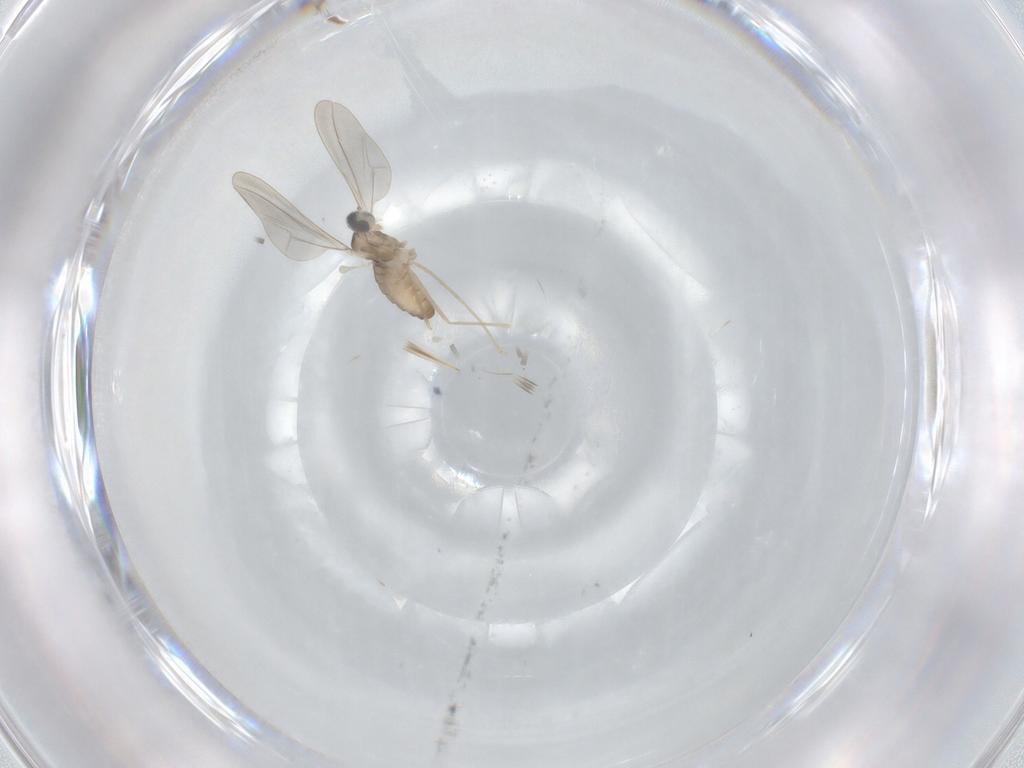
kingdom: Animalia
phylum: Arthropoda
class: Insecta
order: Diptera
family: Cecidomyiidae
